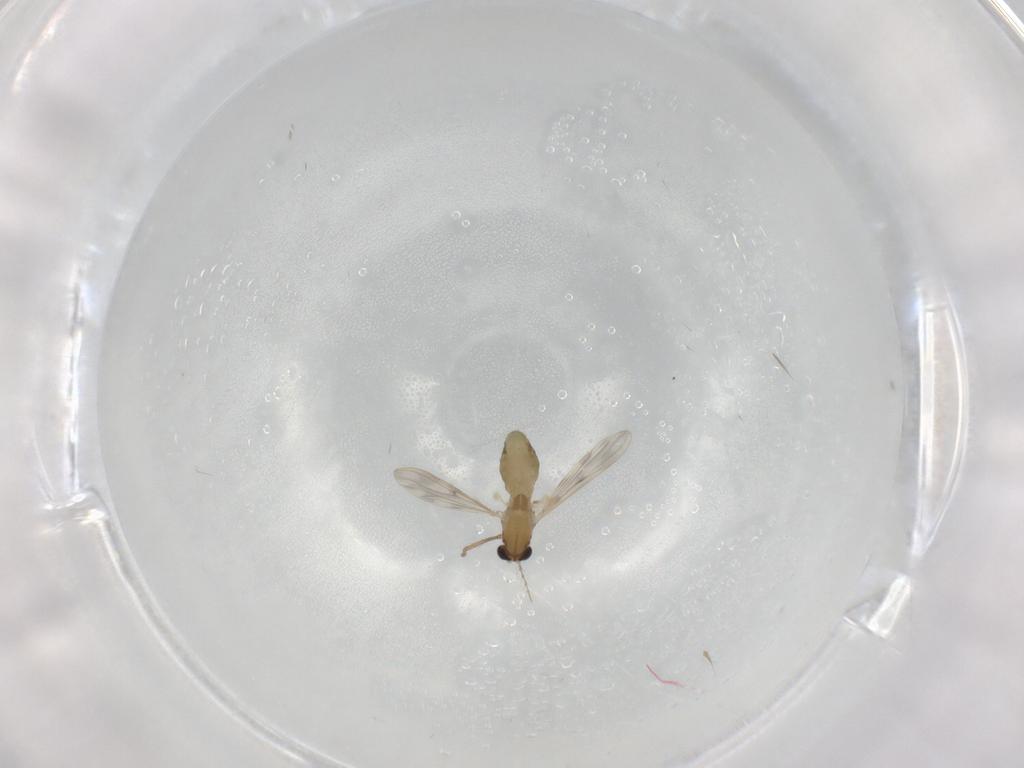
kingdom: Animalia
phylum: Arthropoda
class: Insecta
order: Diptera
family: Chironomidae
